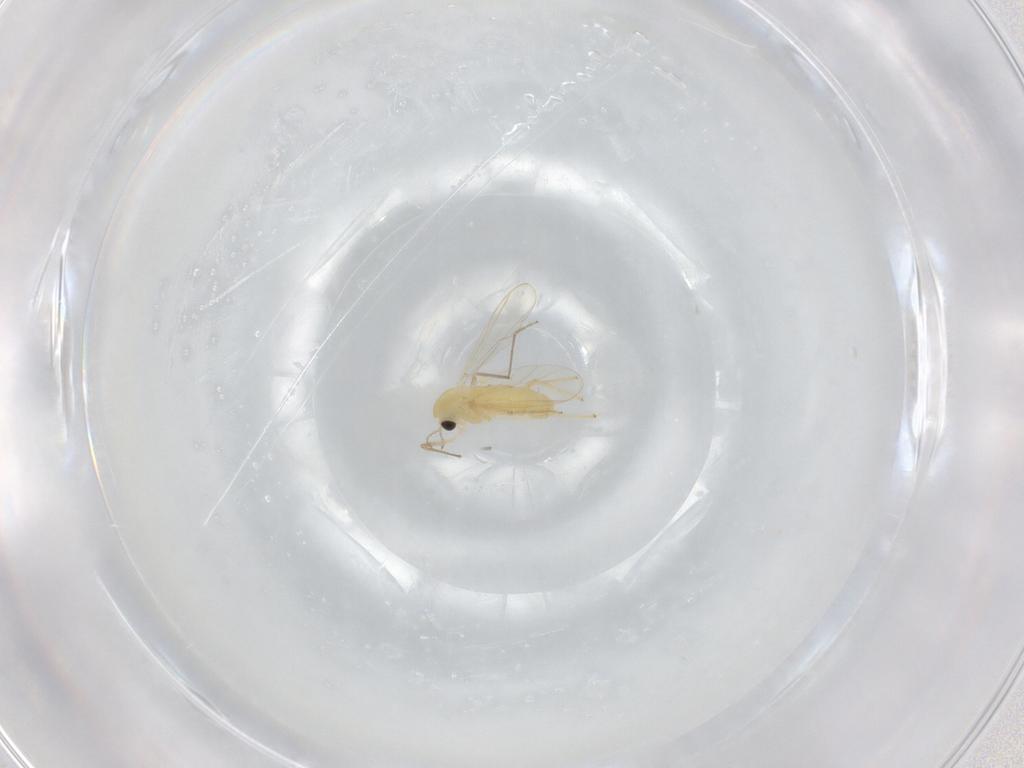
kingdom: Animalia
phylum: Arthropoda
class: Insecta
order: Diptera
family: Chironomidae
